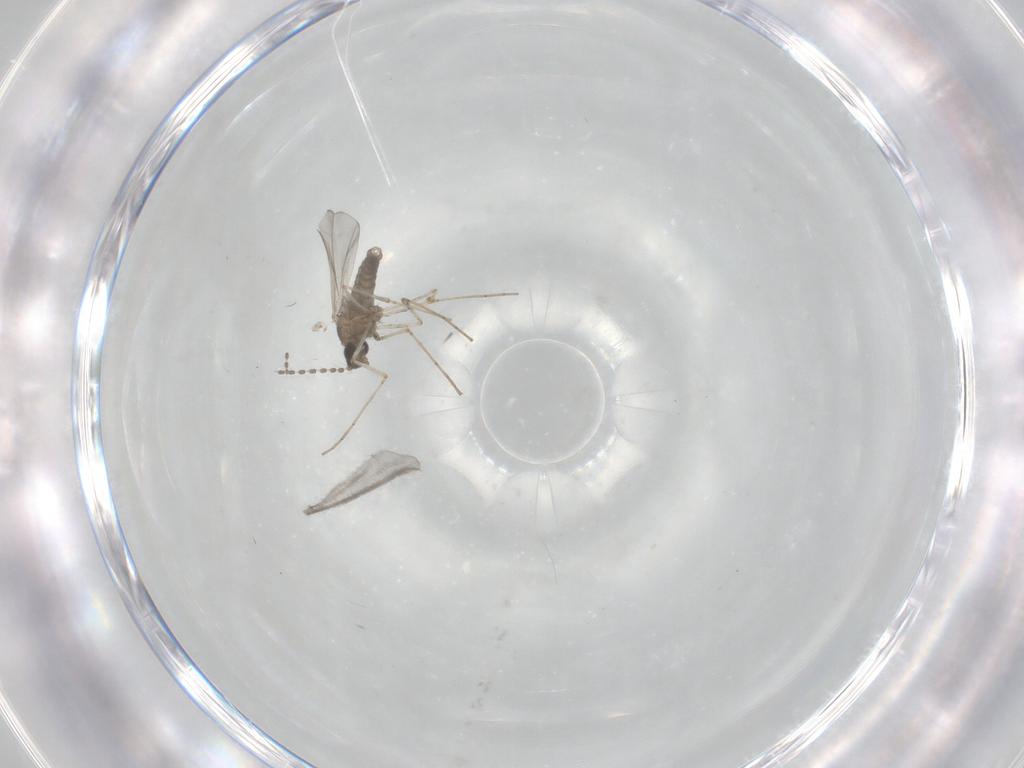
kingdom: Animalia
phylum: Arthropoda
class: Insecta
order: Diptera
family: Cecidomyiidae
